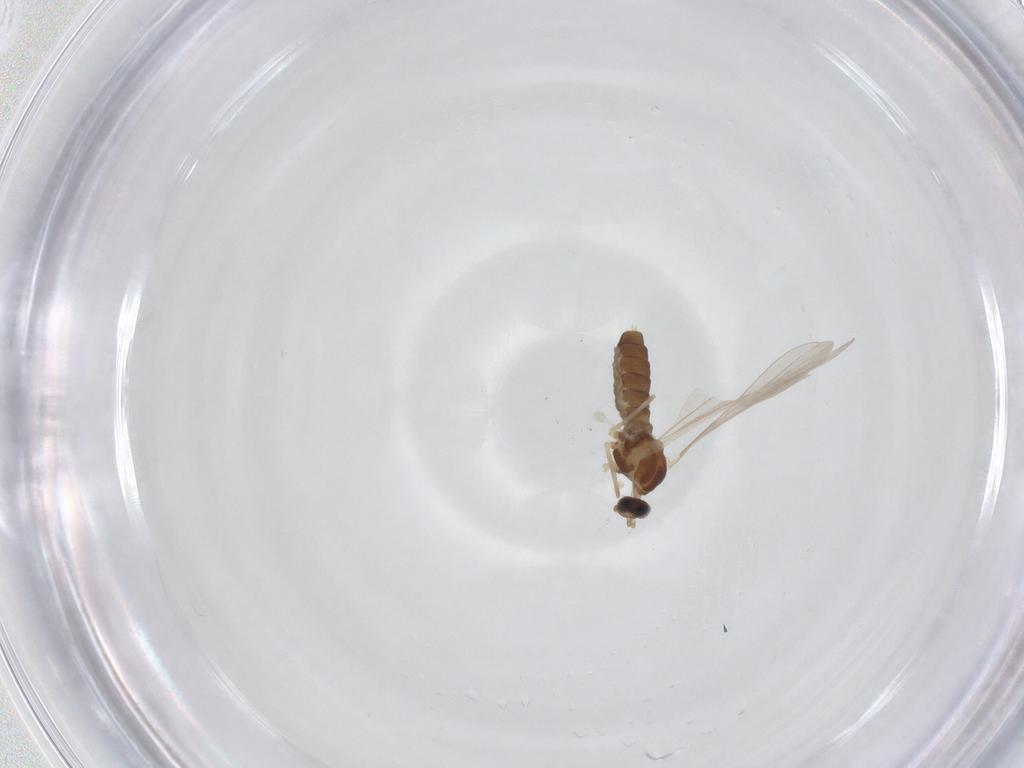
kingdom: Animalia
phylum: Arthropoda
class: Insecta
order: Diptera
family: Cecidomyiidae
